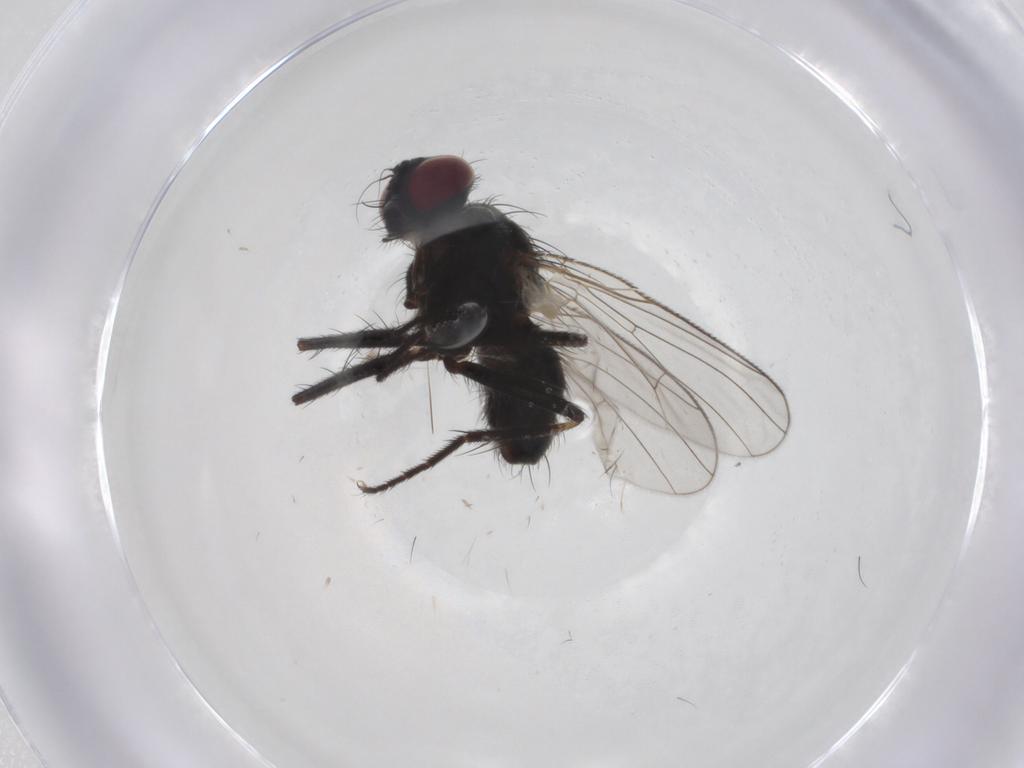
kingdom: Animalia
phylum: Arthropoda
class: Insecta
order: Diptera
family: Muscidae
